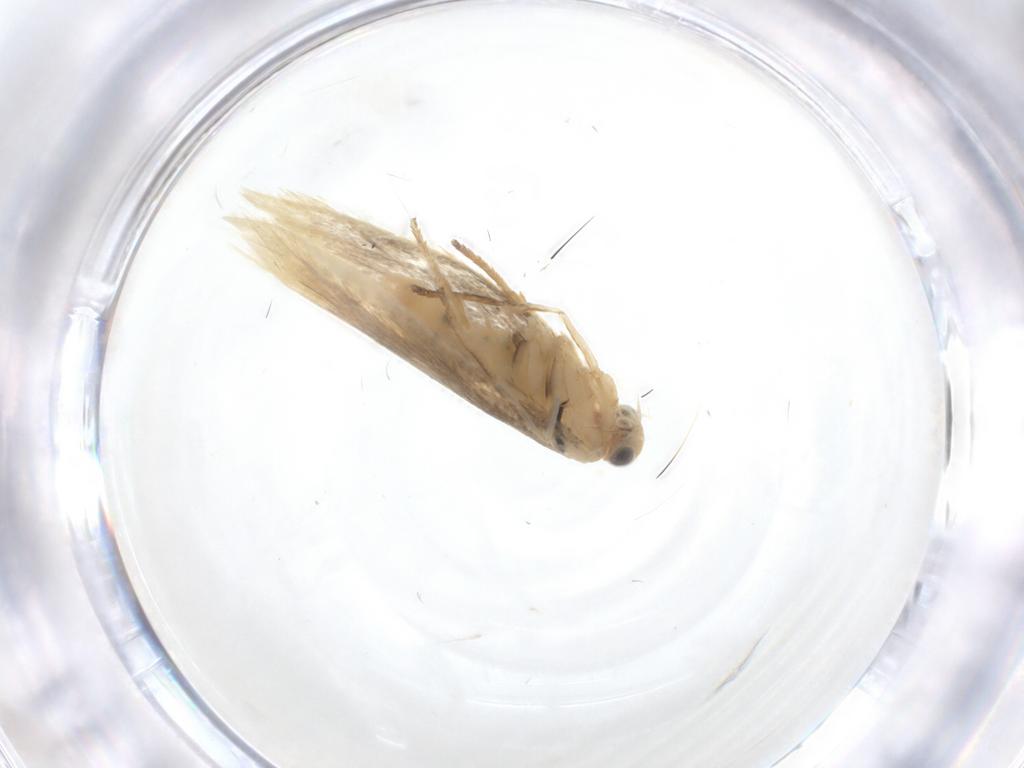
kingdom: Animalia
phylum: Arthropoda
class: Insecta
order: Lepidoptera
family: Argyresthiidae
